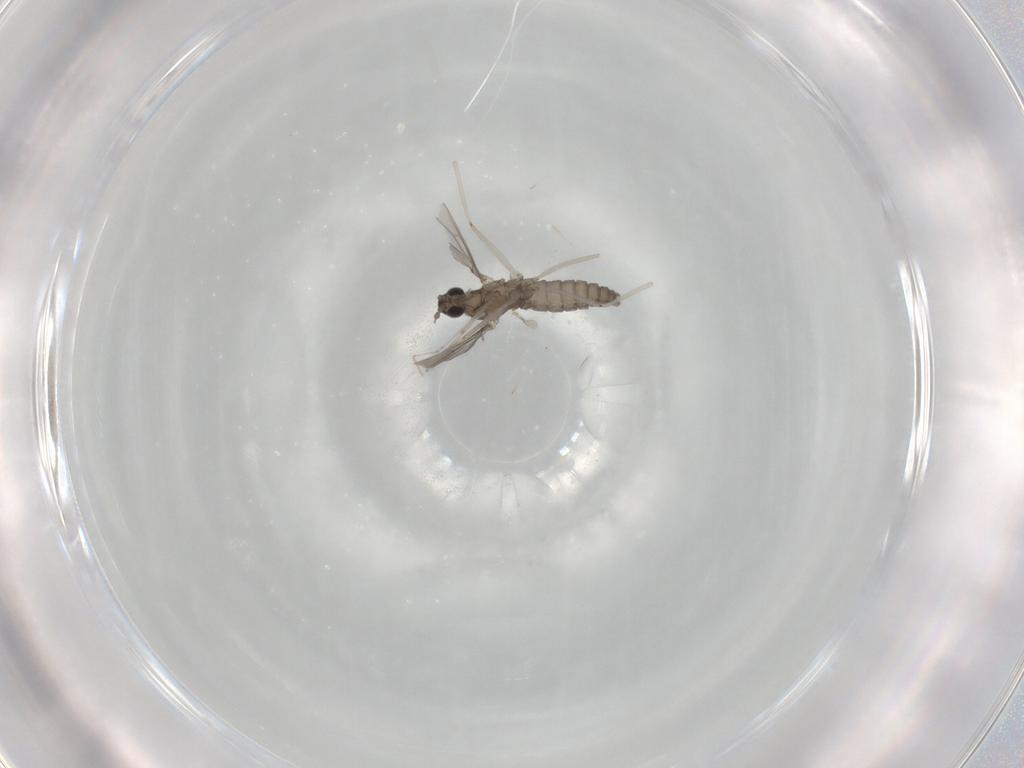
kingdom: Animalia
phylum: Arthropoda
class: Insecta
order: Diptera
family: Cecidomyiidae
